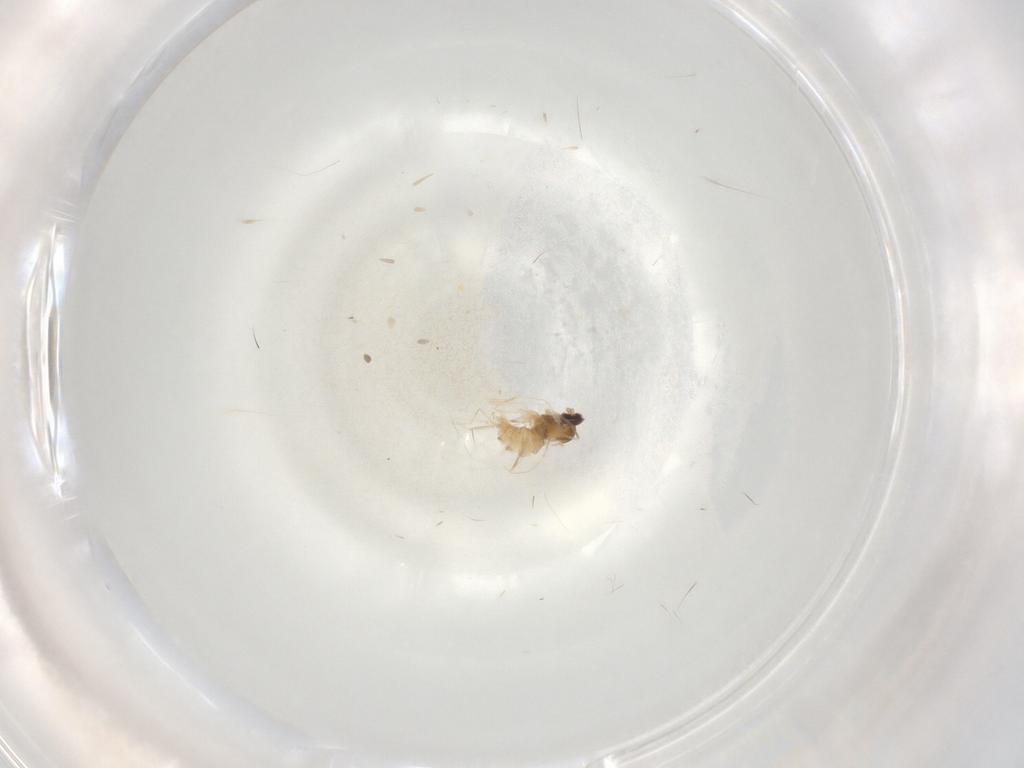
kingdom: Animalia
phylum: Arthropoda
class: Insecta
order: Diptera
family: Cecidomyiidae
